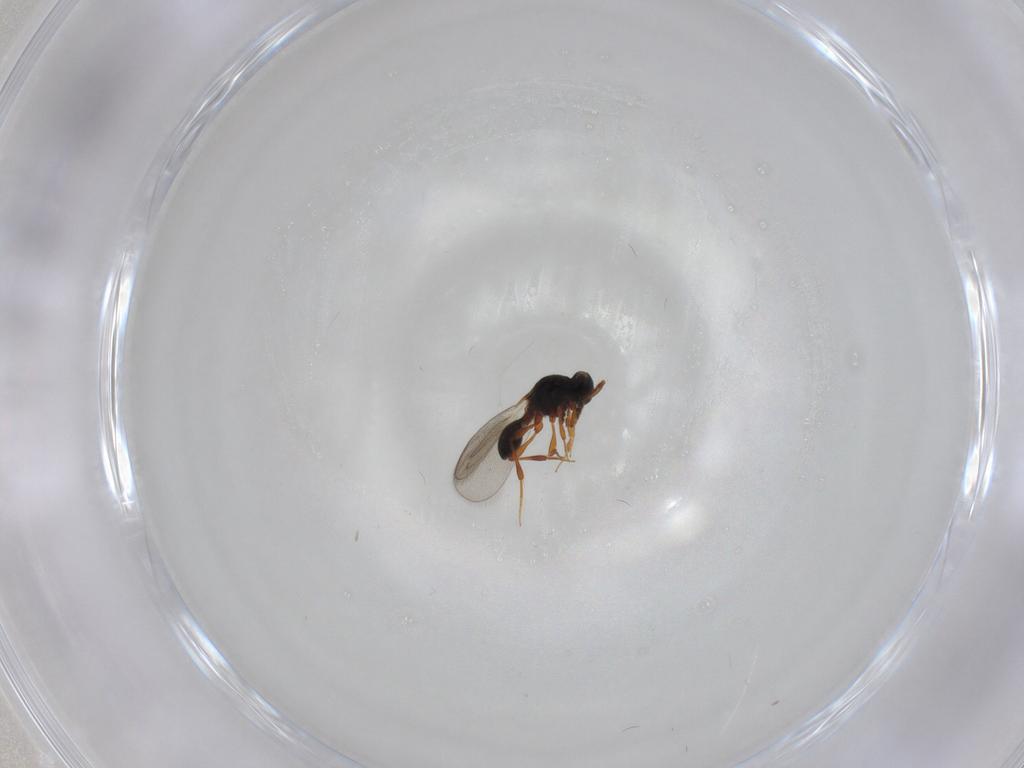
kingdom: Animalia
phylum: Arthropoda
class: Insecta
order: Hymenoptera
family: Platygastridae
